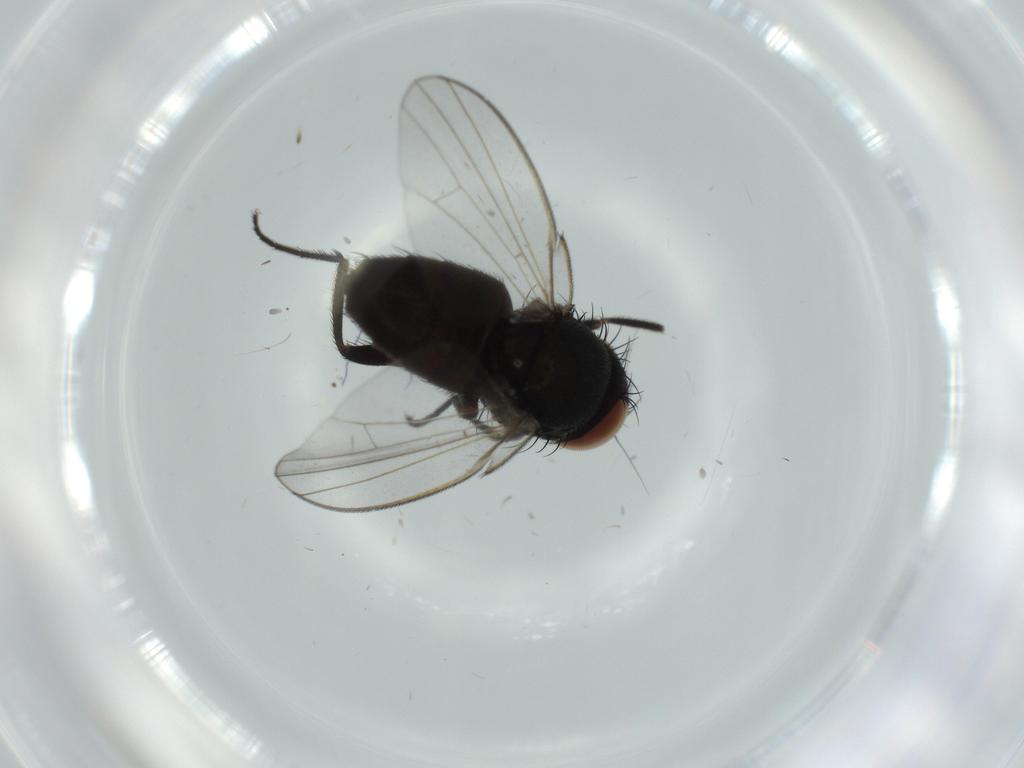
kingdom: Animalia
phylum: Arthropoda
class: Insecta
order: Diptera
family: Milichiidae
